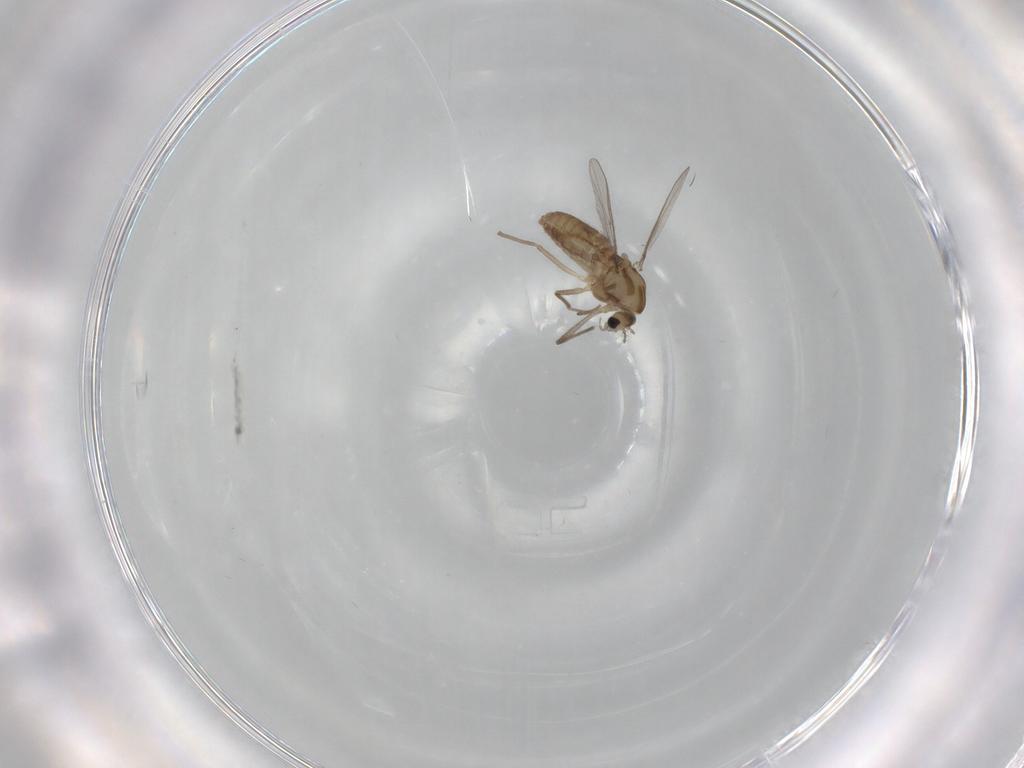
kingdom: Animalia
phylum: Arthropoda
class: Insecta
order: Diptera
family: Chironomidae
